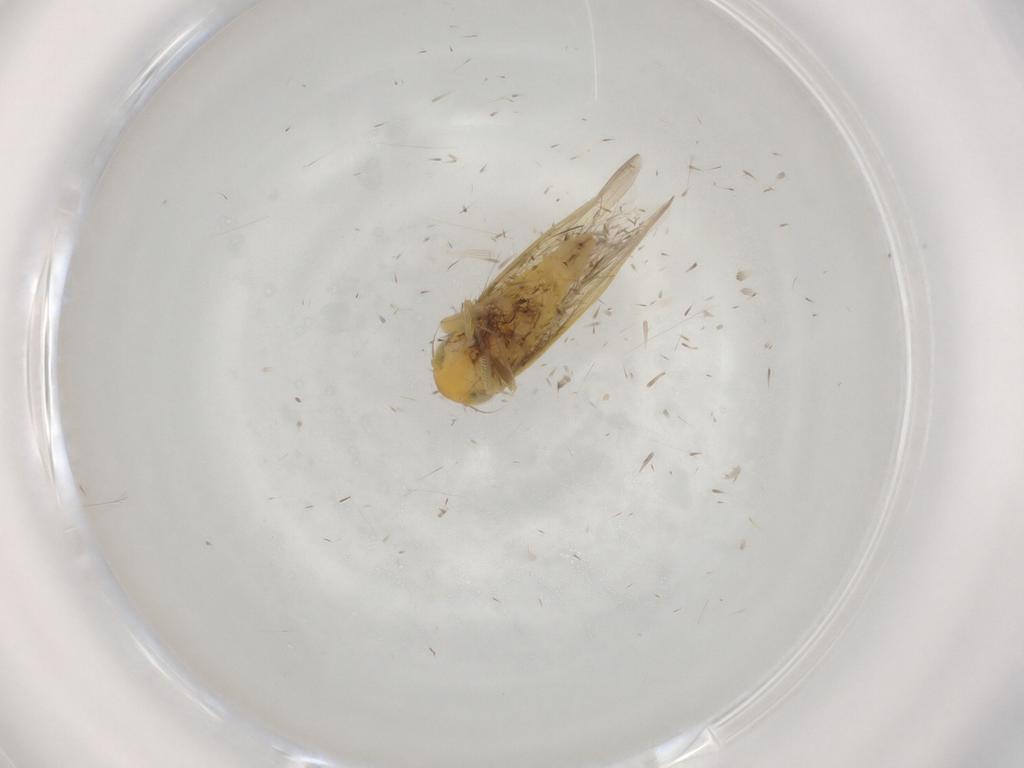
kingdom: Animalia
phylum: Arthropoda
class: Insecta
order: Hemiptera
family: Cicadellidae
